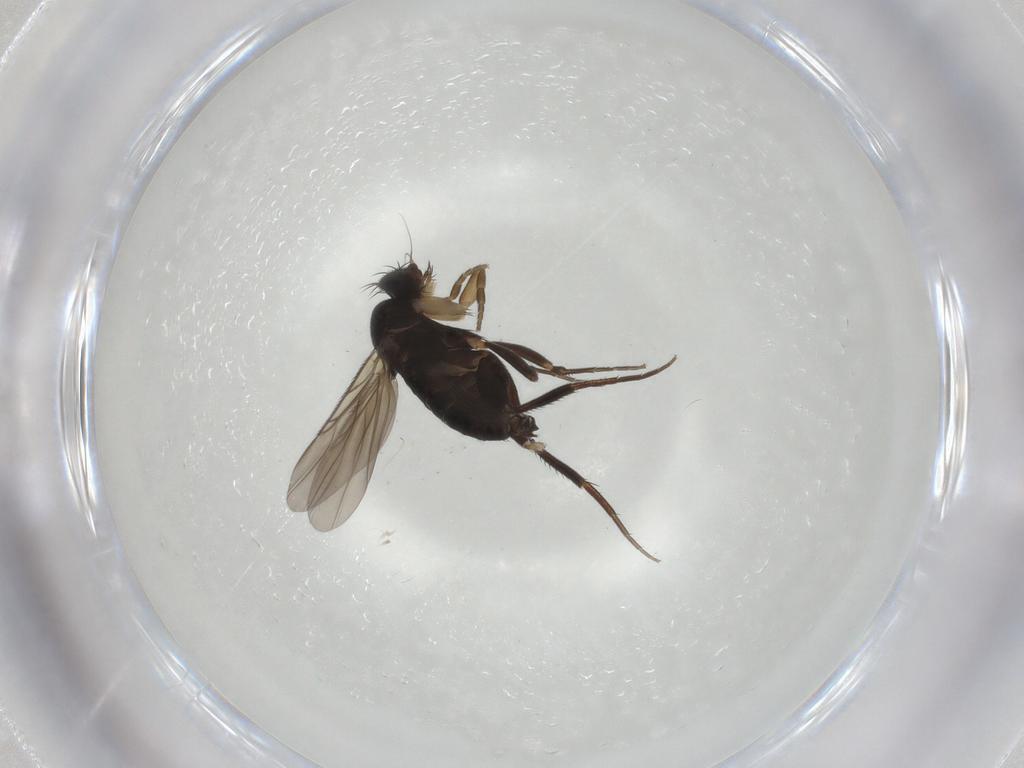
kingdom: Animalia
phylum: Arthropoda
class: Insecta
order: Diptera
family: Phoridae
